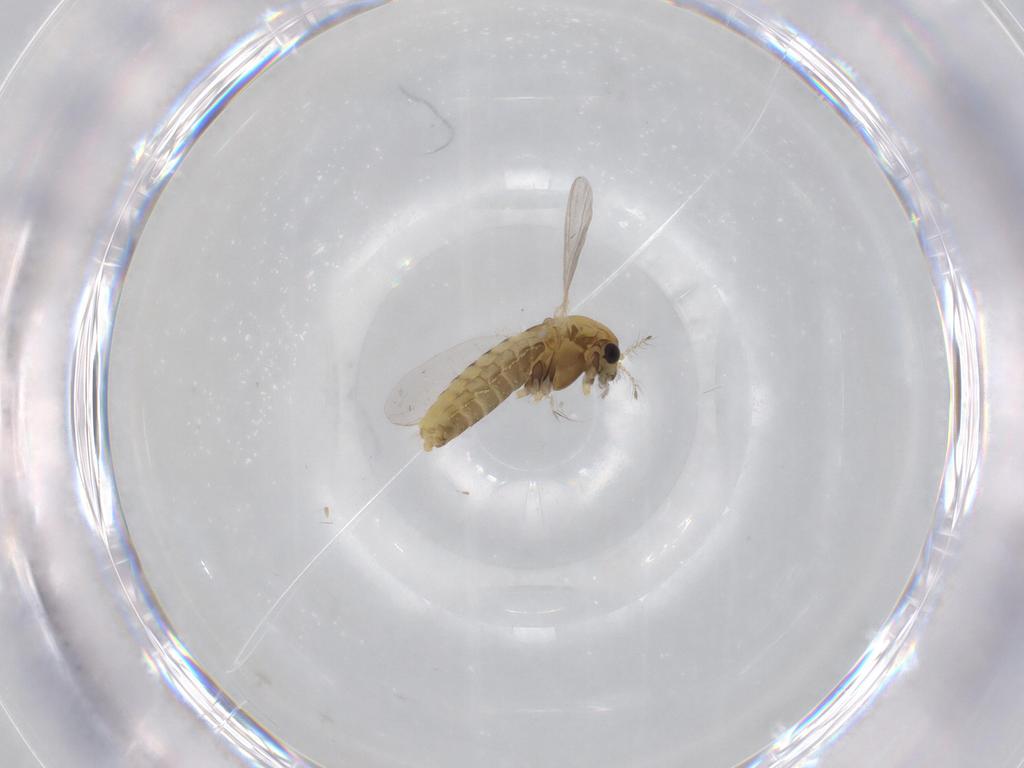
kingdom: Animalia
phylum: Arthropoda
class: Insecta
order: Diptera
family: Chironomidae
